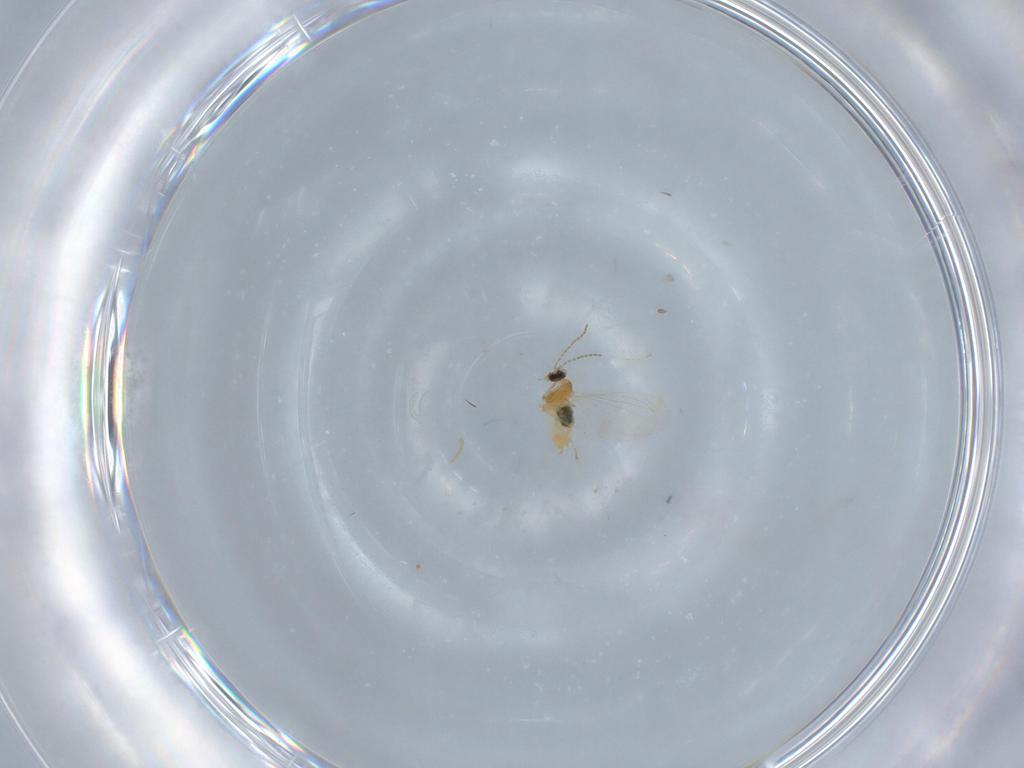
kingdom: Animalia
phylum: Arthropoda
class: Insecta
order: Diptera
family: Cecidomyiidae
